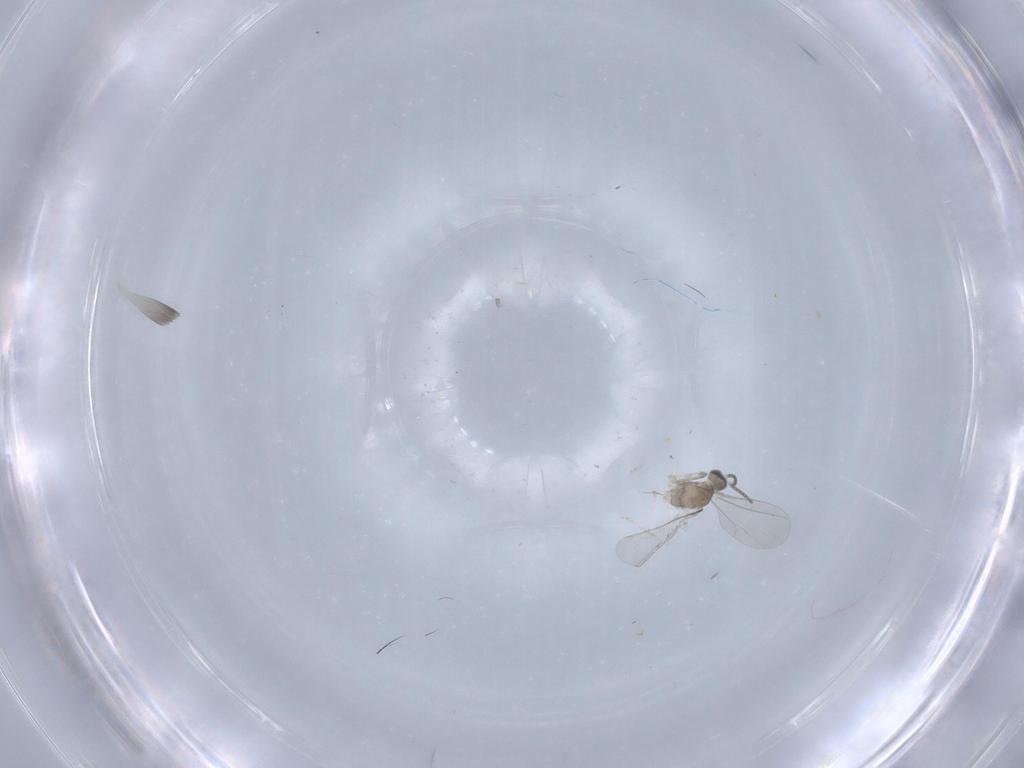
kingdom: Animalia
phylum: Arthropoda
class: Insecta
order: Diptera
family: Cecidomyiidae
